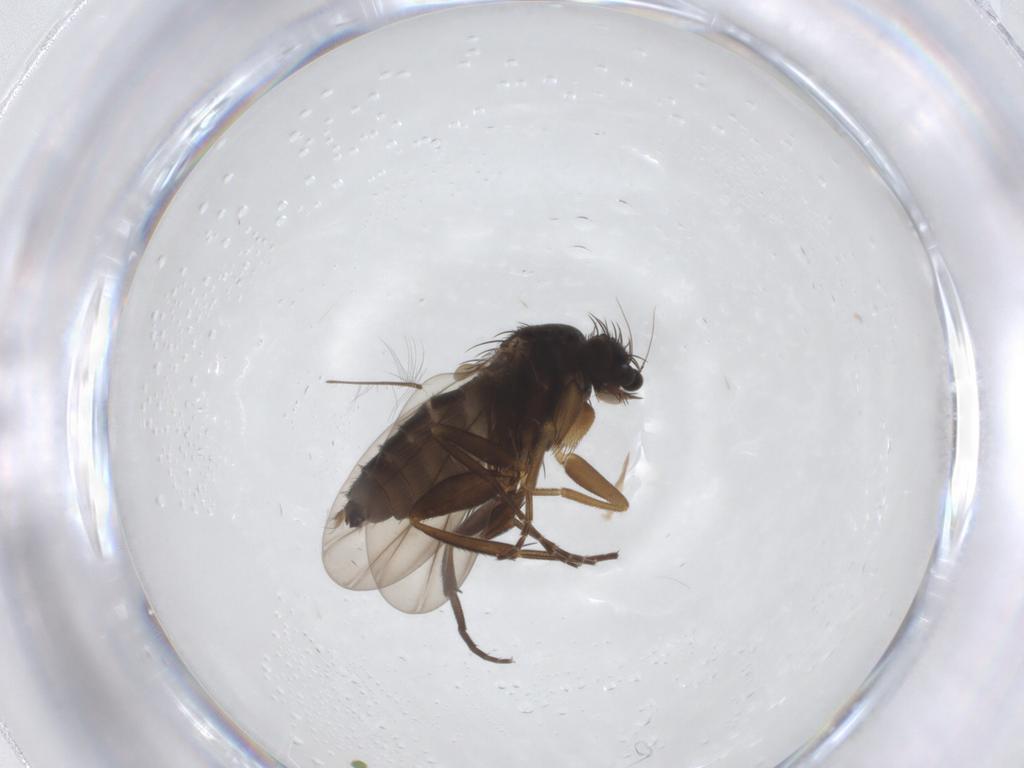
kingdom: Animalia
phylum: Arthropoda
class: Insecta
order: Diptera
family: Phoridae
